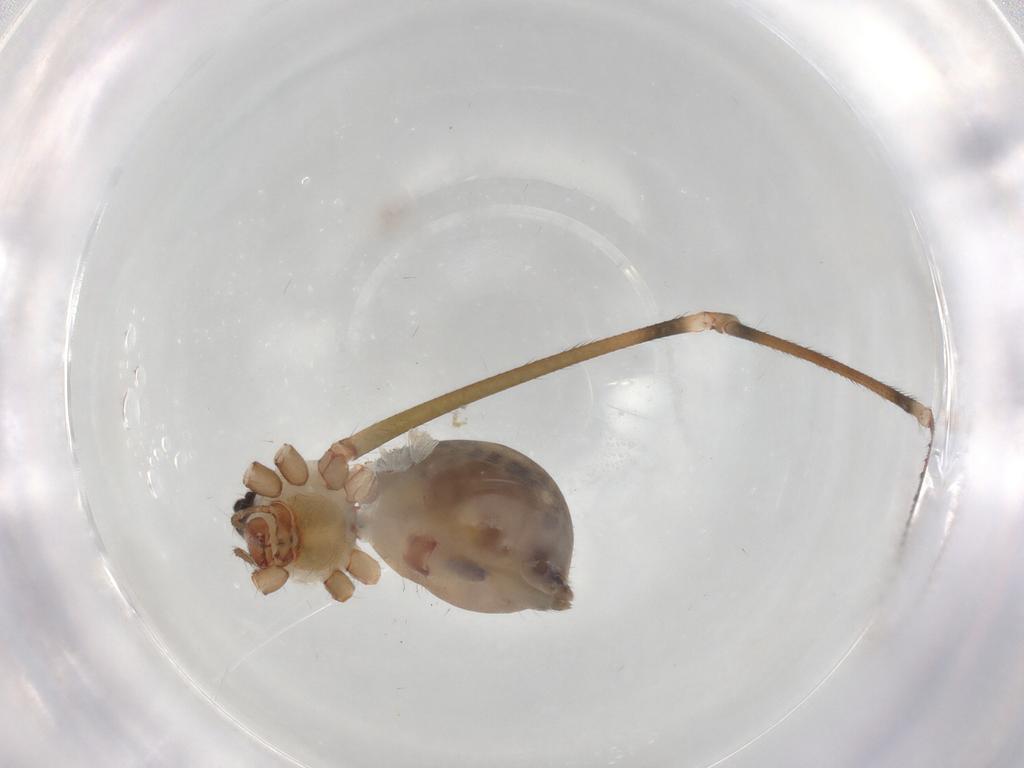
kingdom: Animalia
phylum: Arthropoda
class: Arachnida
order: Araneae
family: Pholcidae
